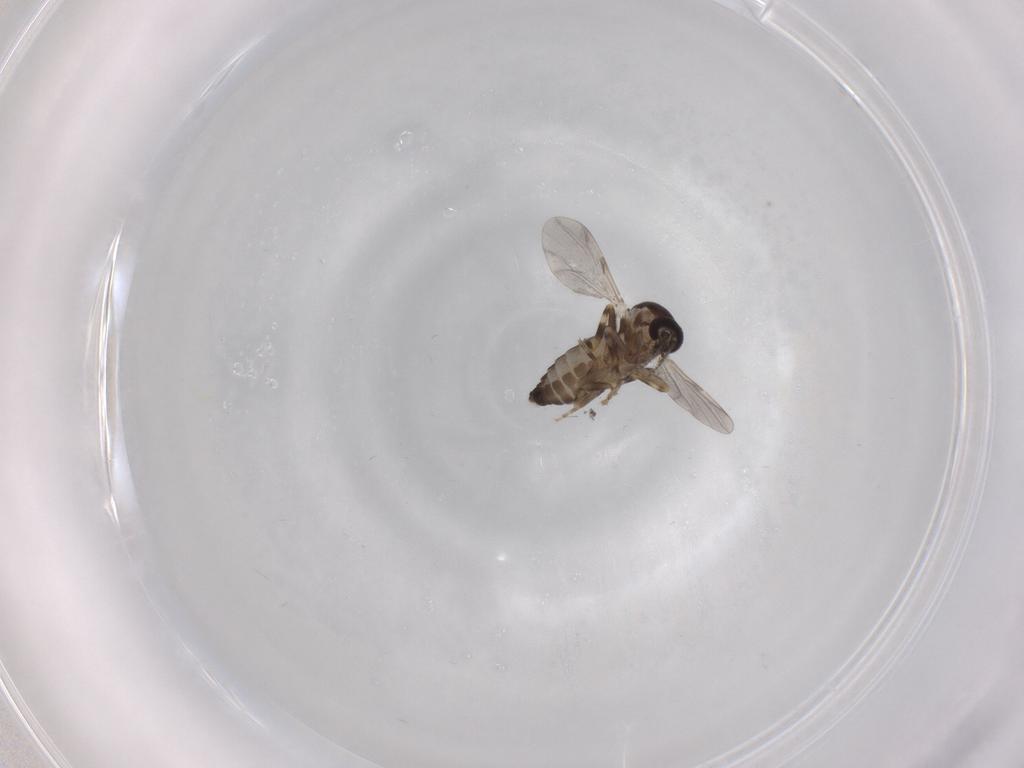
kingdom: Animalia
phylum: Arthropoda
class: Insecta
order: Diptera
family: Ceratopogonidae
